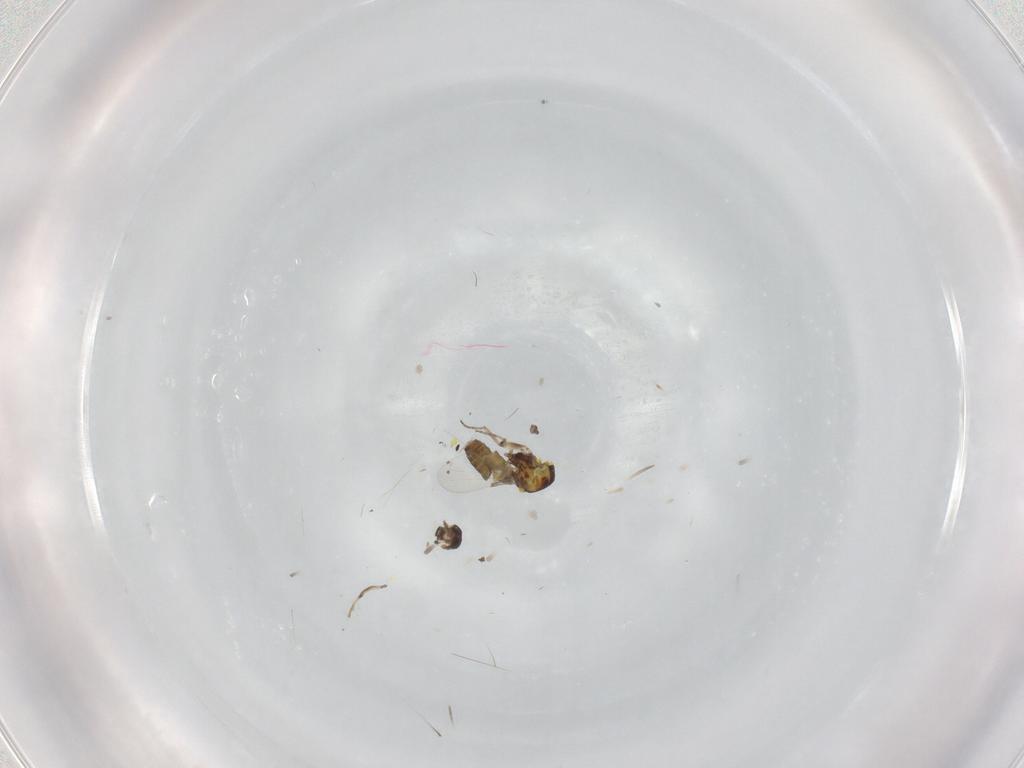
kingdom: Animalia
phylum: Arthropoda
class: Insecta
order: Diptera
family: Ceratopogonidae
